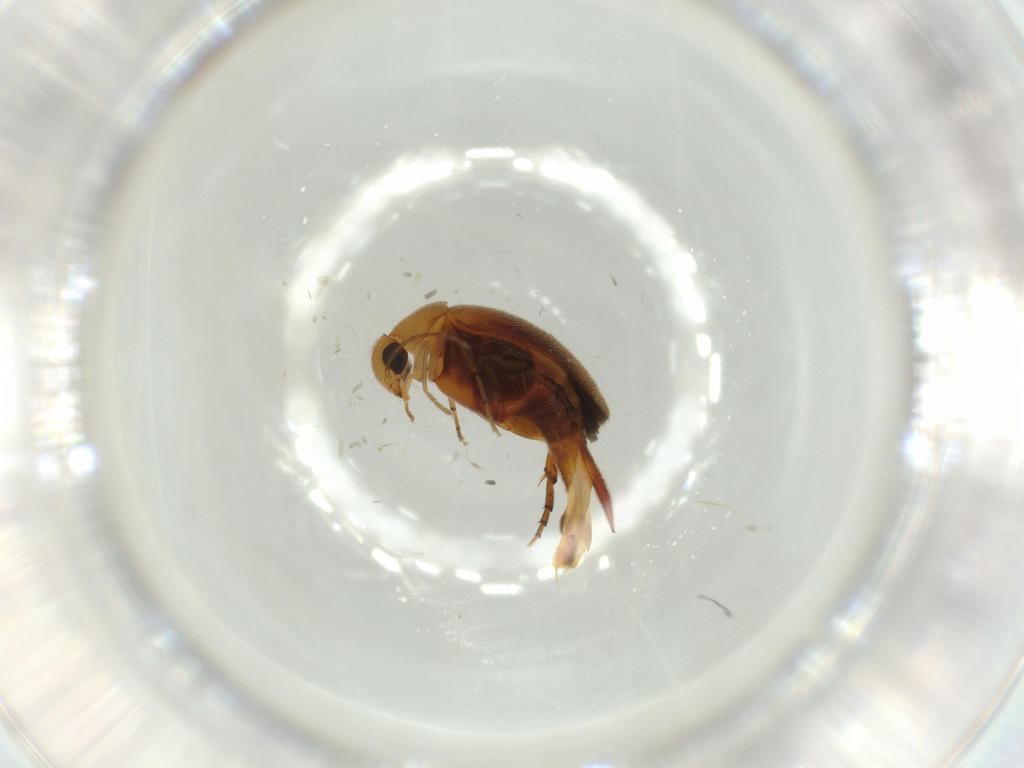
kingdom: Animalia
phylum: Arthropoda
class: Insecta
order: Coleoptera
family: Mordellidae
